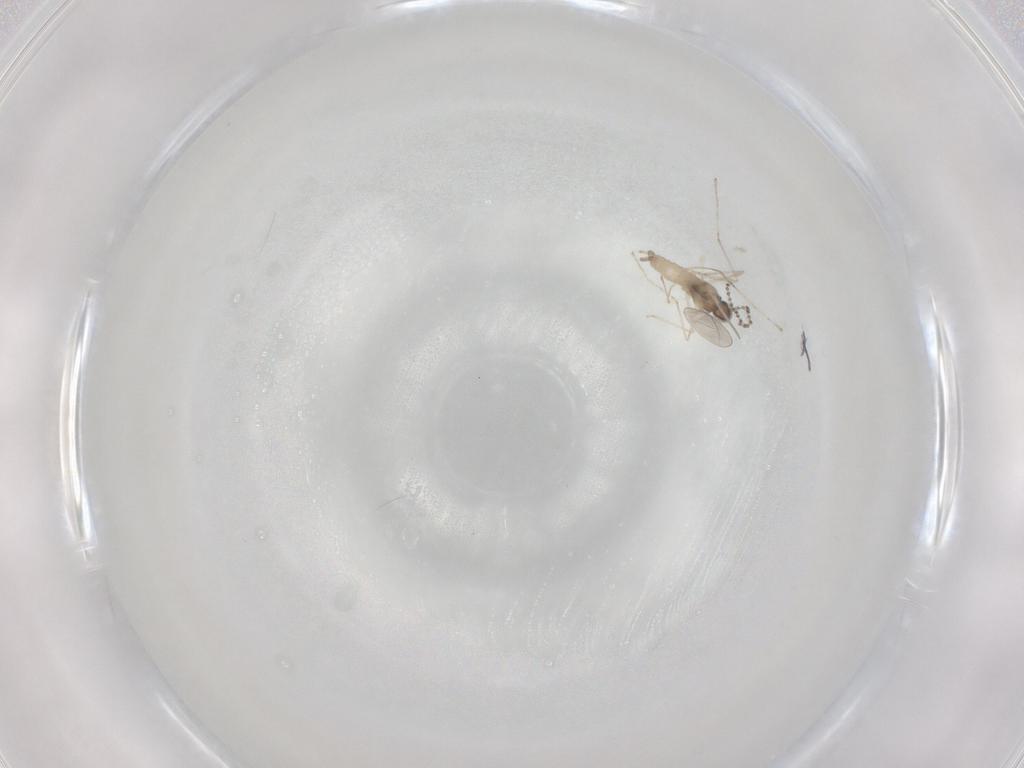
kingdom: Animalia
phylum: Arthropoda
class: Insecta
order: Diptera
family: Cecidomyiidae
